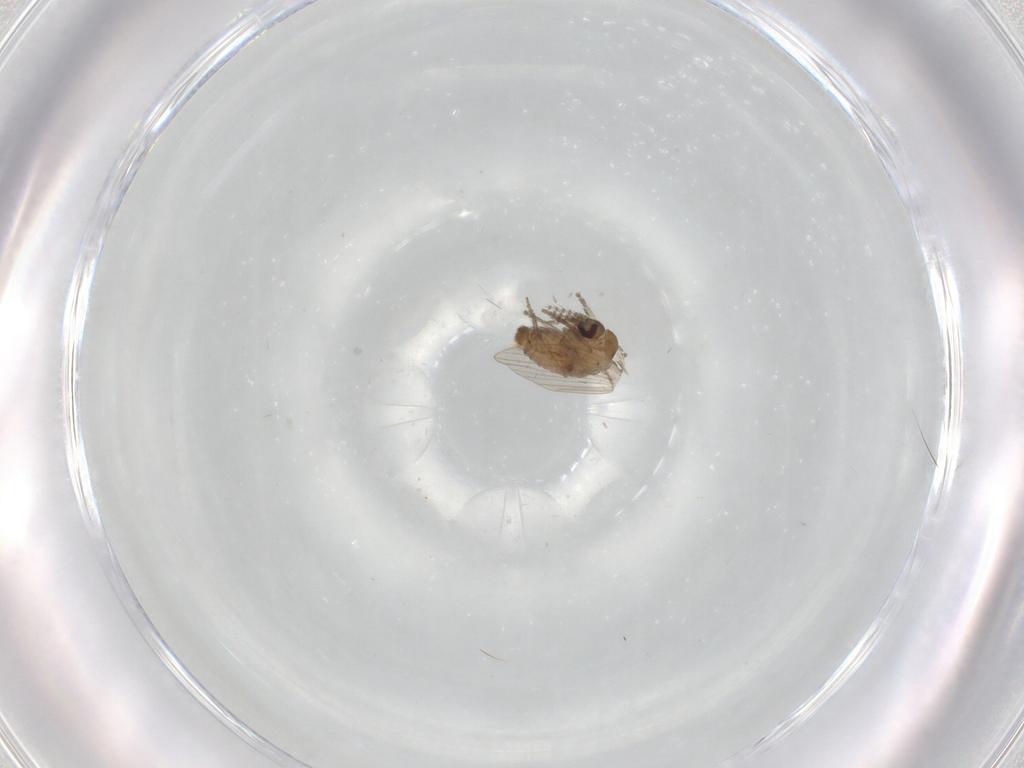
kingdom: Animalia
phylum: Arthropoda
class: Insecta
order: Diptera
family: Psychodidae
